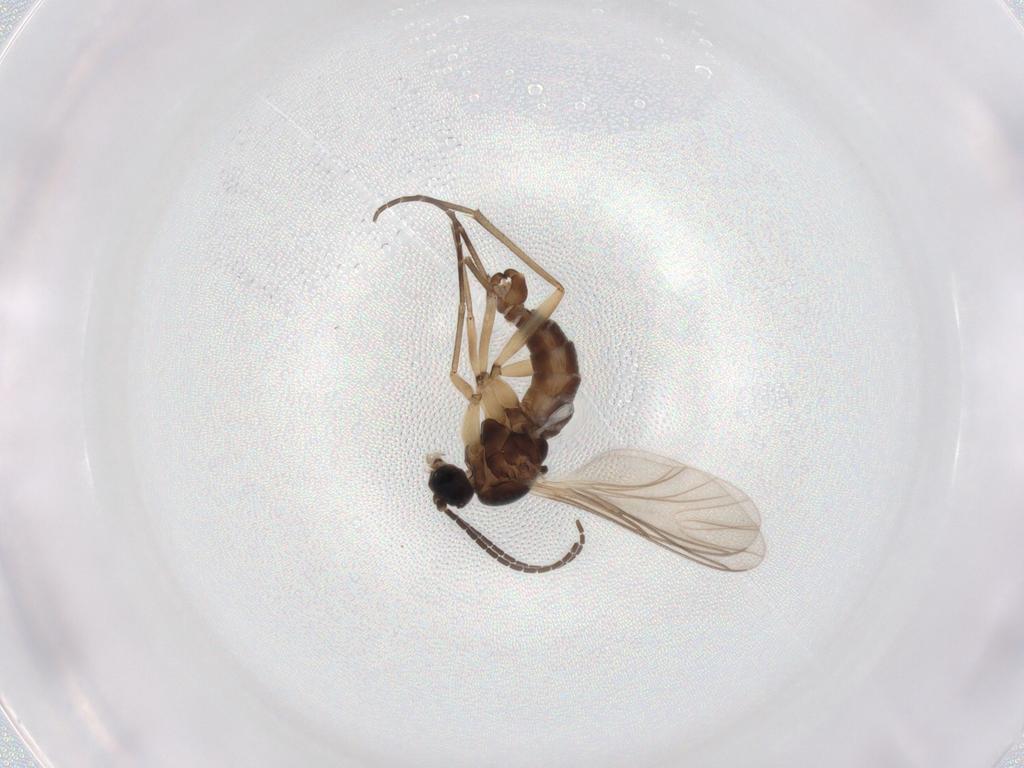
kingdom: Animalia
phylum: Arthropoda
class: Insecta
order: Diptera
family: Sciaridae
